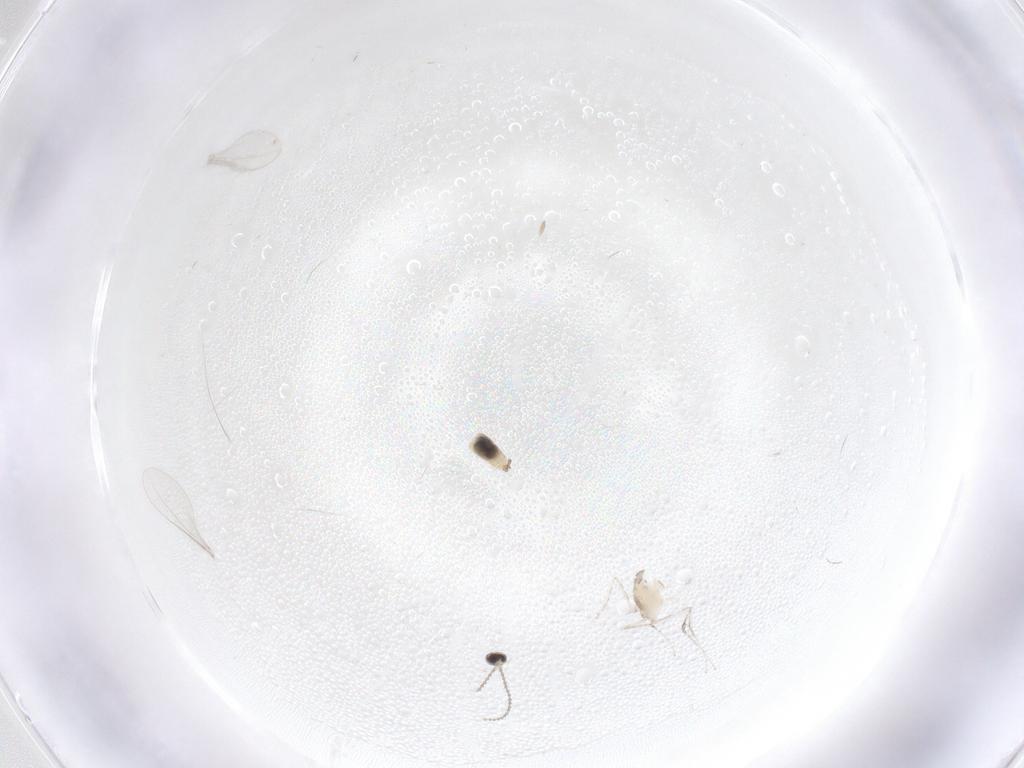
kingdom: Animalia
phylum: Arthropoda
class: Insecta
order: Diptera
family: Cecidomyiidae
